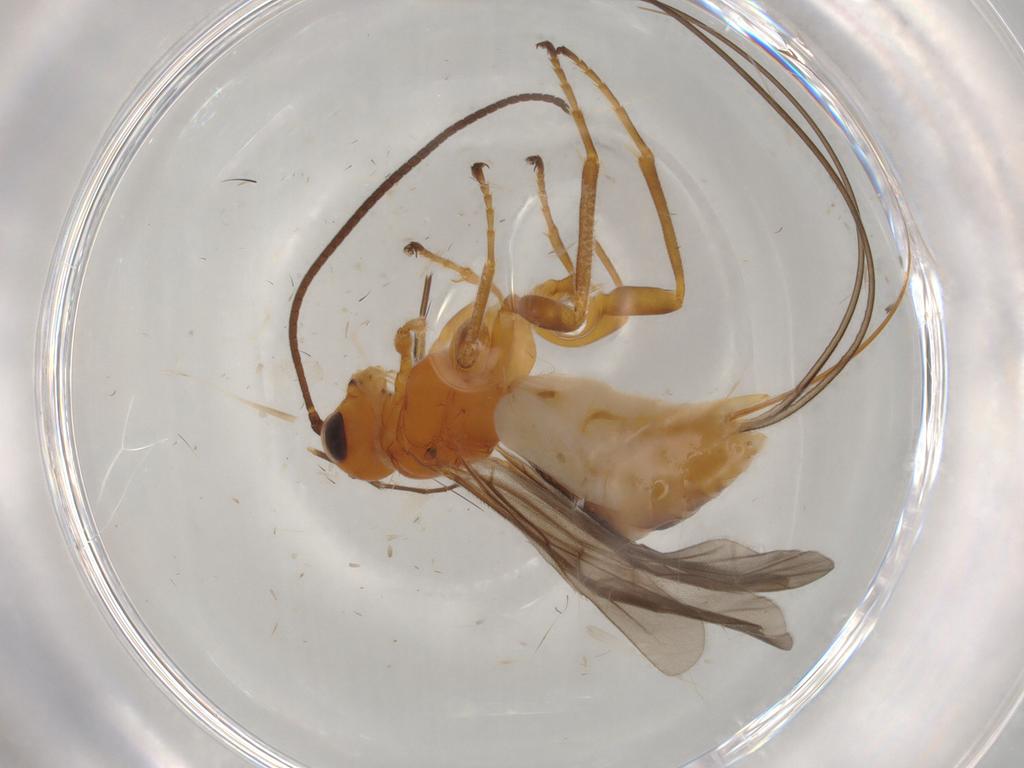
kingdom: Animalia
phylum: Arthropoda
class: Insecta
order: Hymenoptera
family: Braconidae
